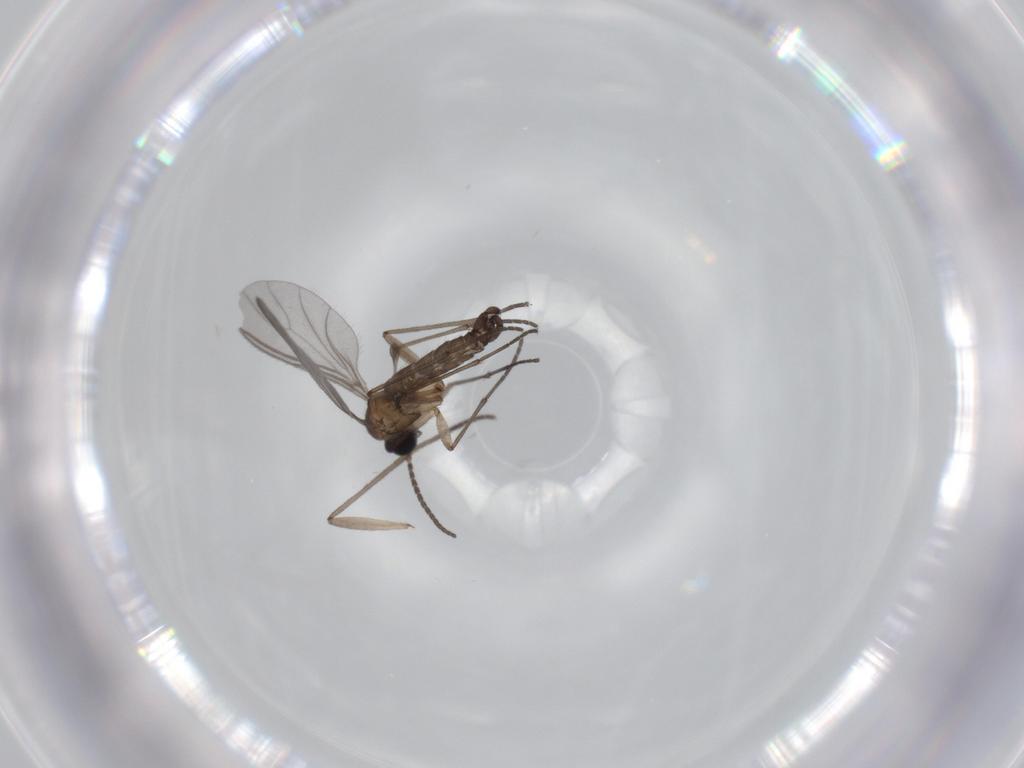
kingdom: Animalia
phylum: Arthropoda
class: Insecta
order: Diptera
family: Sciaridae
